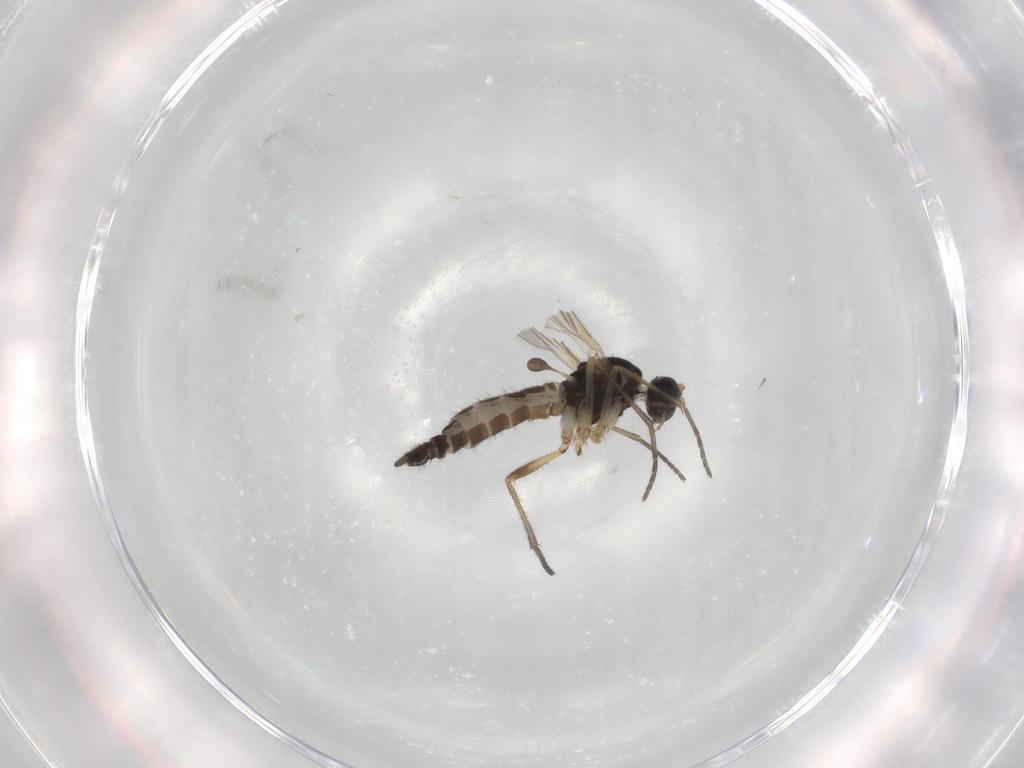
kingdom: Animalia
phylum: Arthropoda
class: Insecta
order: Diptera
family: Sciaridae
